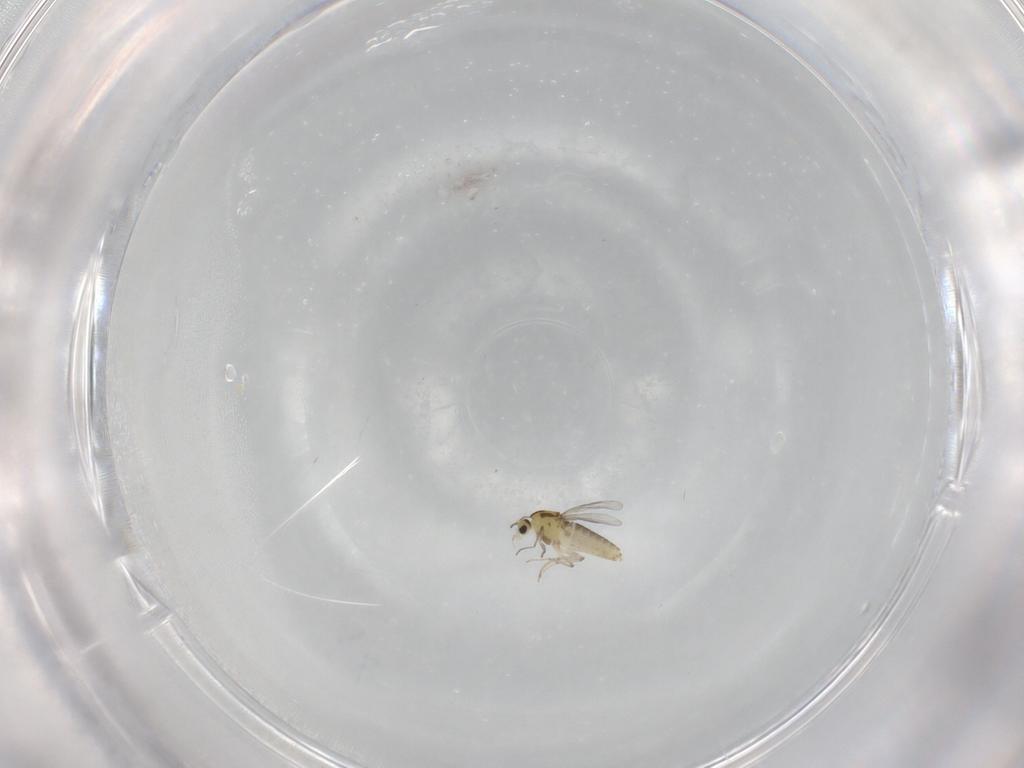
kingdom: Animalia
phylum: Arthropoda
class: Insecta
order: Diptera
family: Chironomidae
